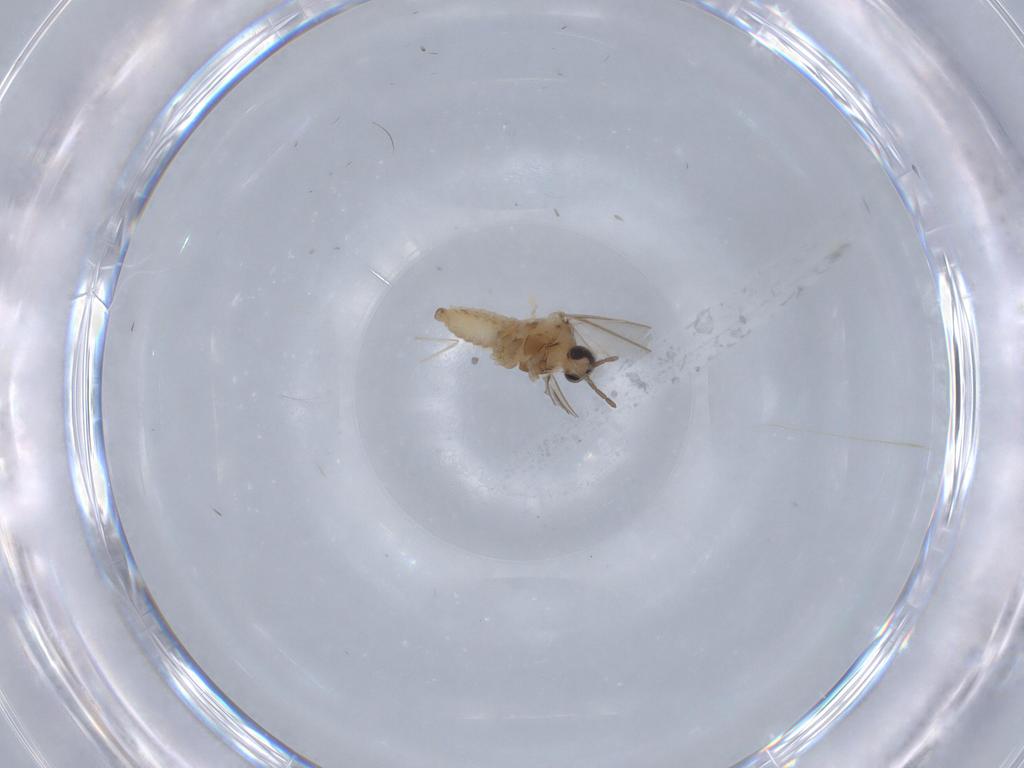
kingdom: Animalia
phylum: Arthropoda
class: Insecta
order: Diptera
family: Cecidomyiidae
